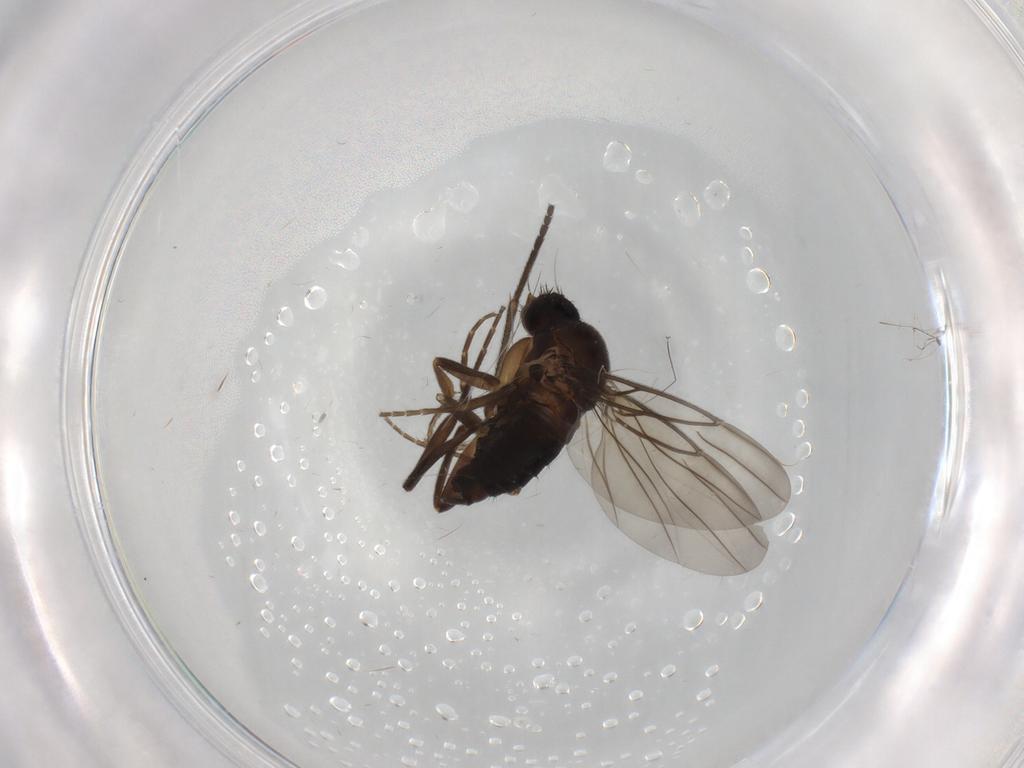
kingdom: Animalia
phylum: Arthropoda
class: Insecta
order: Diptera
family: Sciaridae
